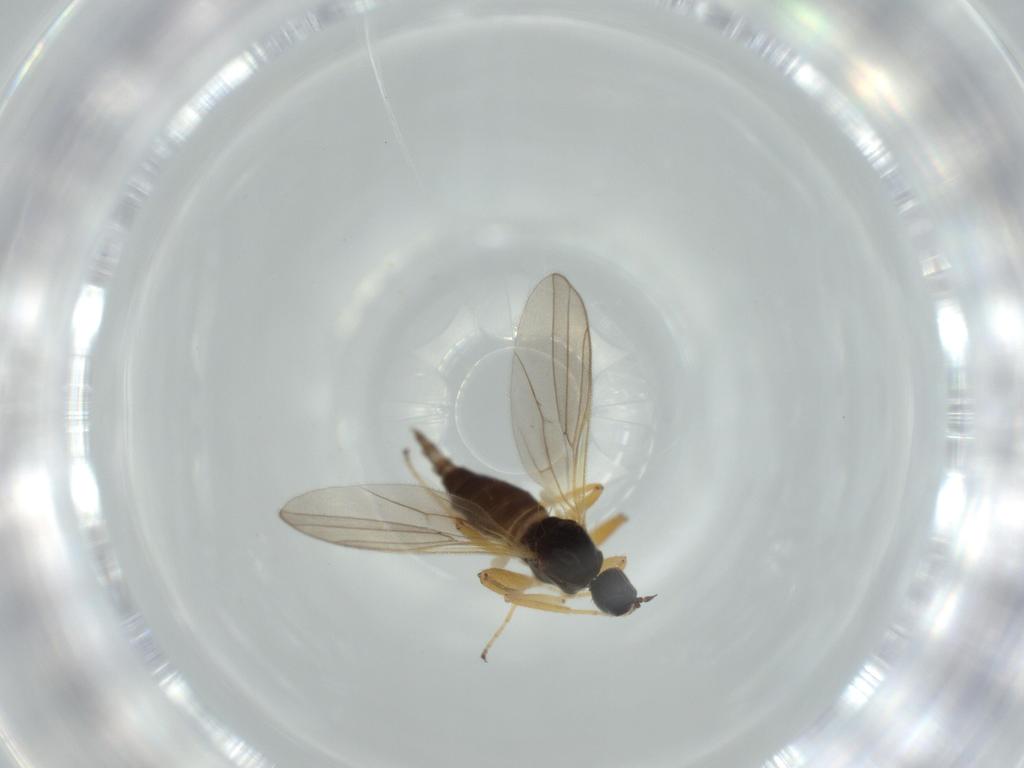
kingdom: Animalia
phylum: Arthropoda
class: Insecta
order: Diptera
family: Hybotidae
